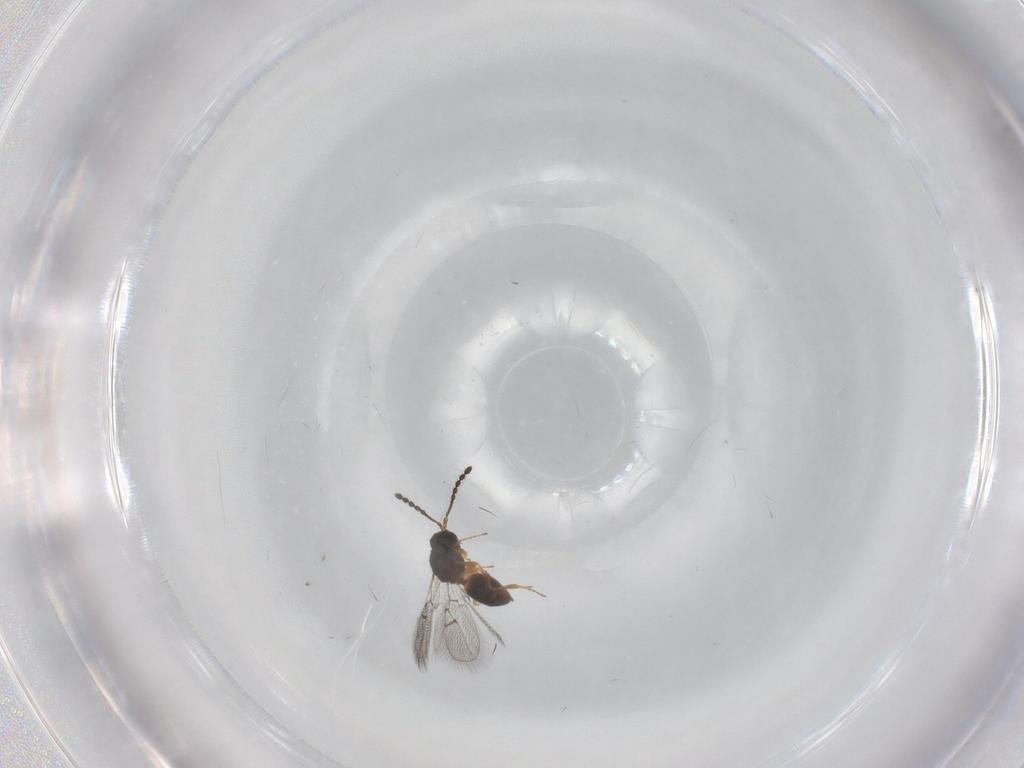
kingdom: Animalia
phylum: Arthropoda
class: Insecta
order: Hymenoptera
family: Figitidae
